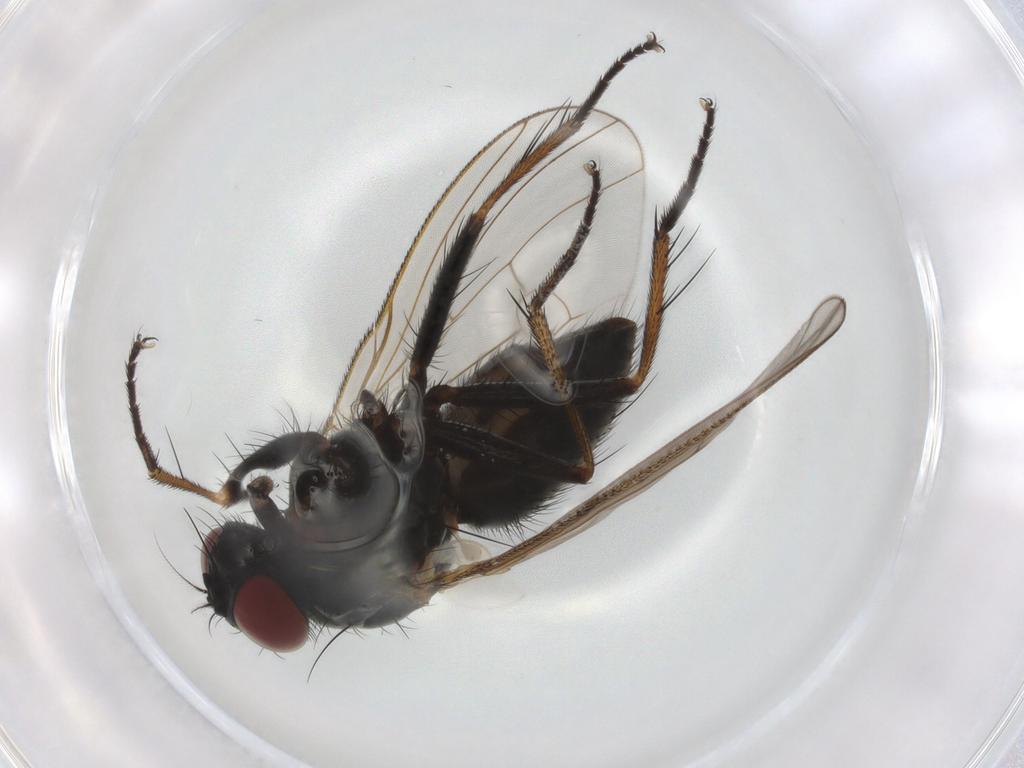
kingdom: Animalia
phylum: Arthropoda
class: Insecta
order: Diptera
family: Muscidae
